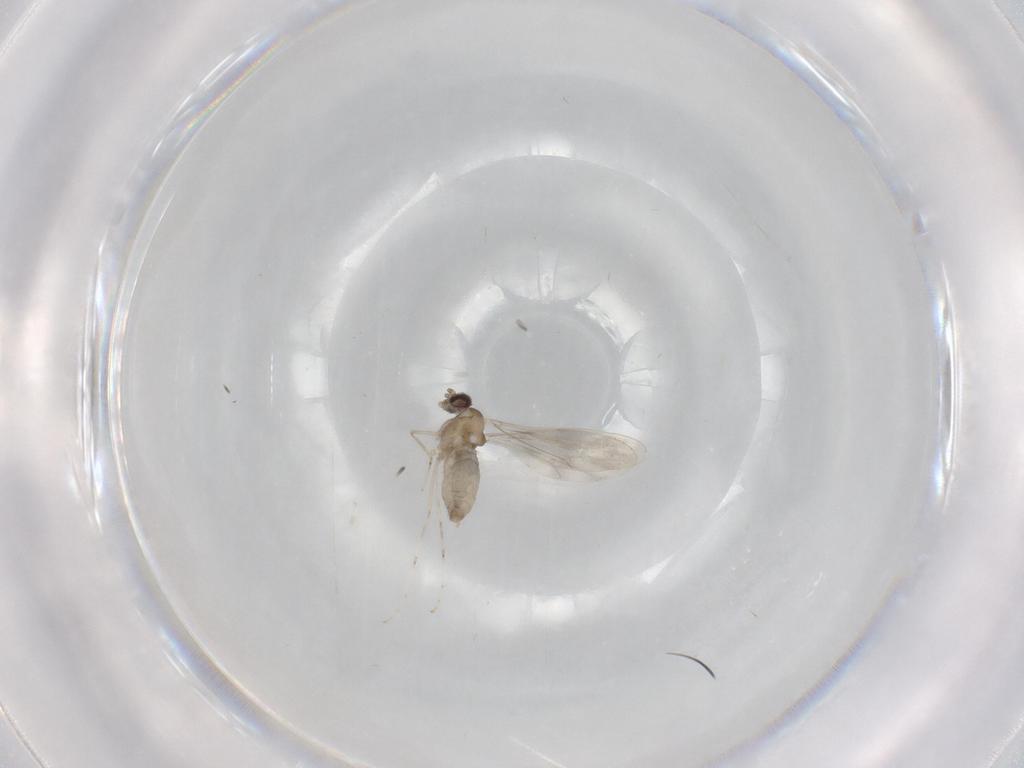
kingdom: Animalia
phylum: Arthropoda
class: Insecta
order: Diptera
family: Cecidomyiidae
